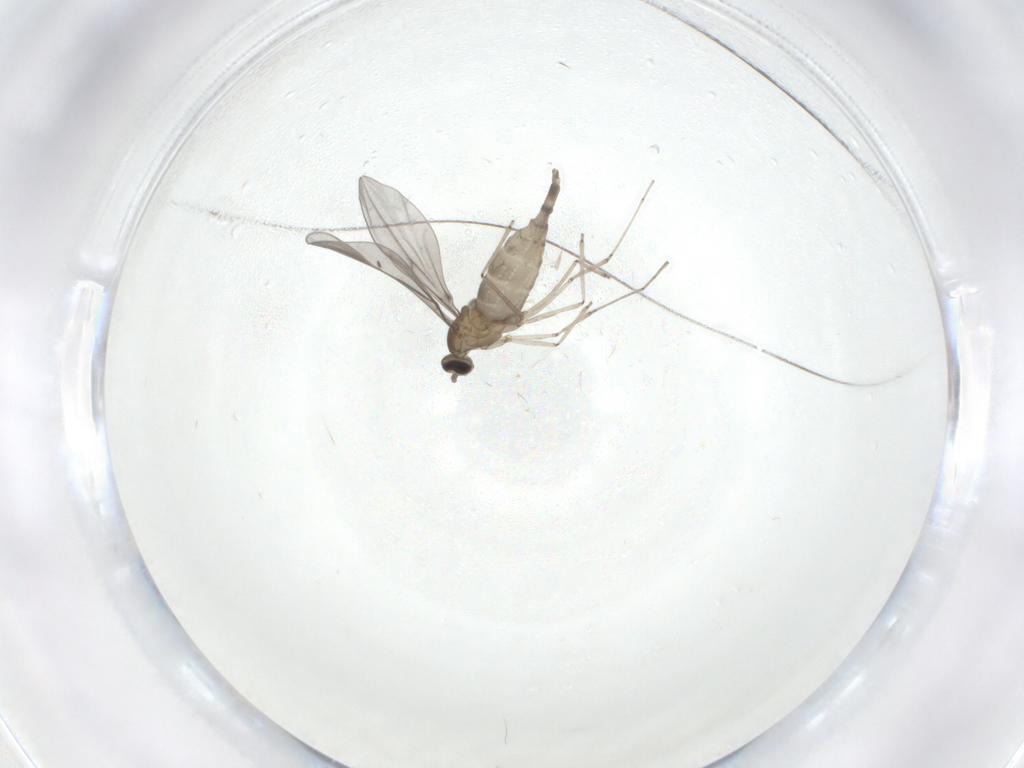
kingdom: Animalia
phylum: Arthropoda
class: Insecta
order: Diptera
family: Cecidomyiidae
